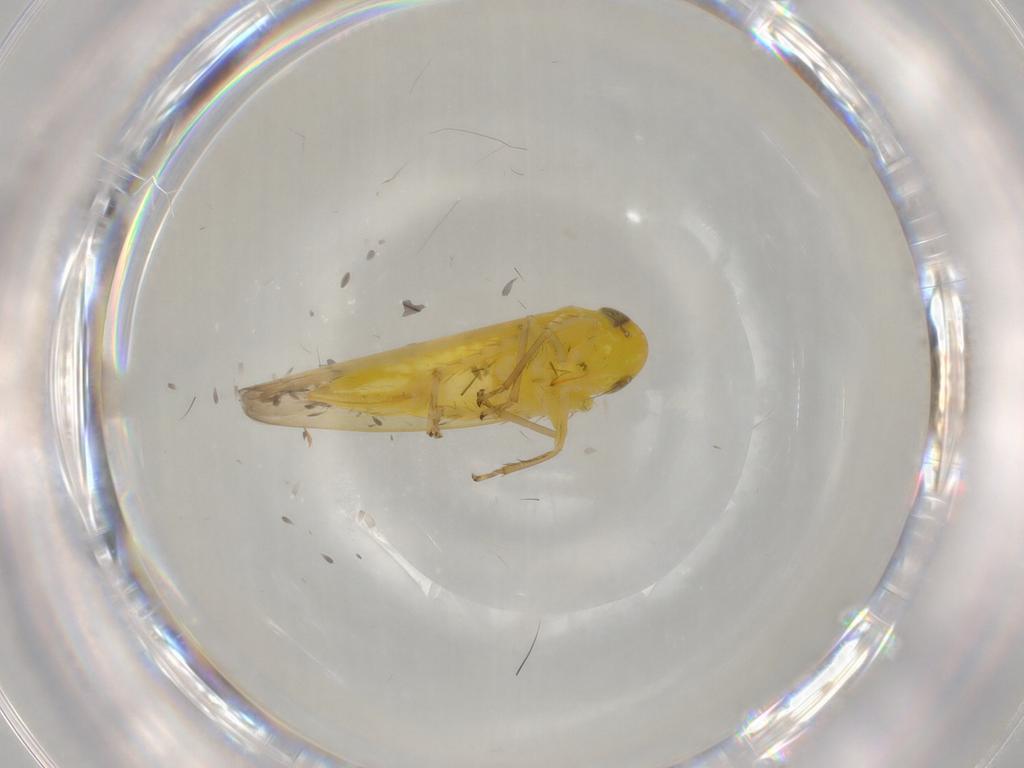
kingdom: Animalia
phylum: Arthropoda
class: Insecta
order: Hemiptera
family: Cicadellidae
